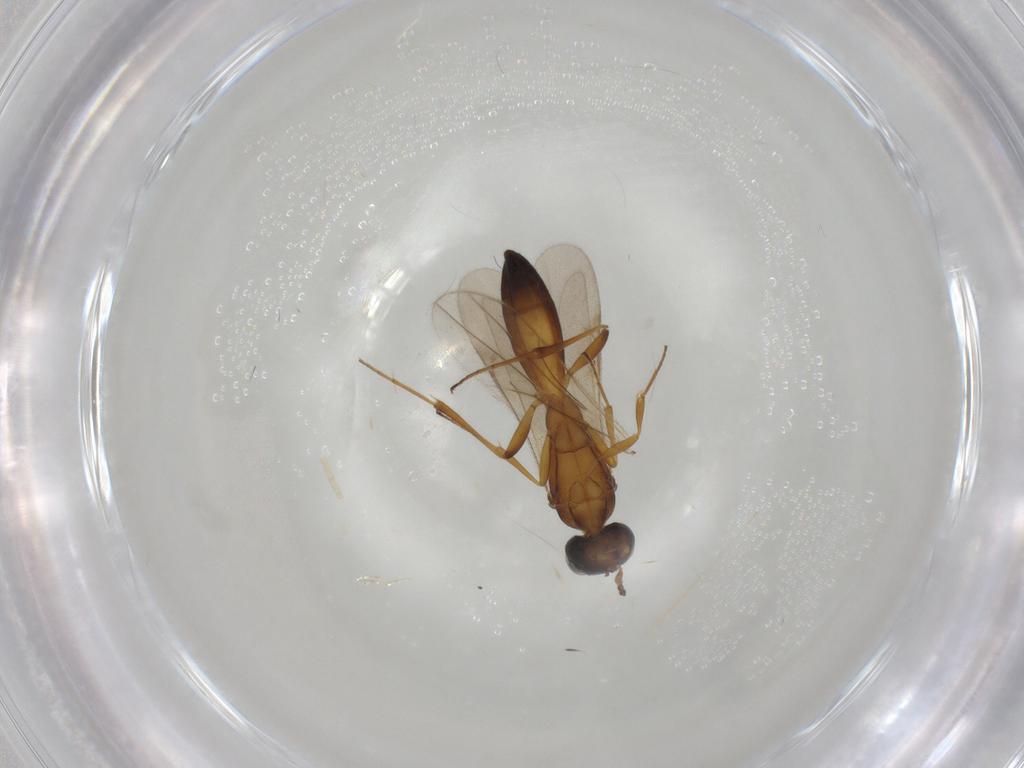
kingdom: Animalia
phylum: Arthropoda
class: Insecta
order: Hymenoptera
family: Scelionidae
